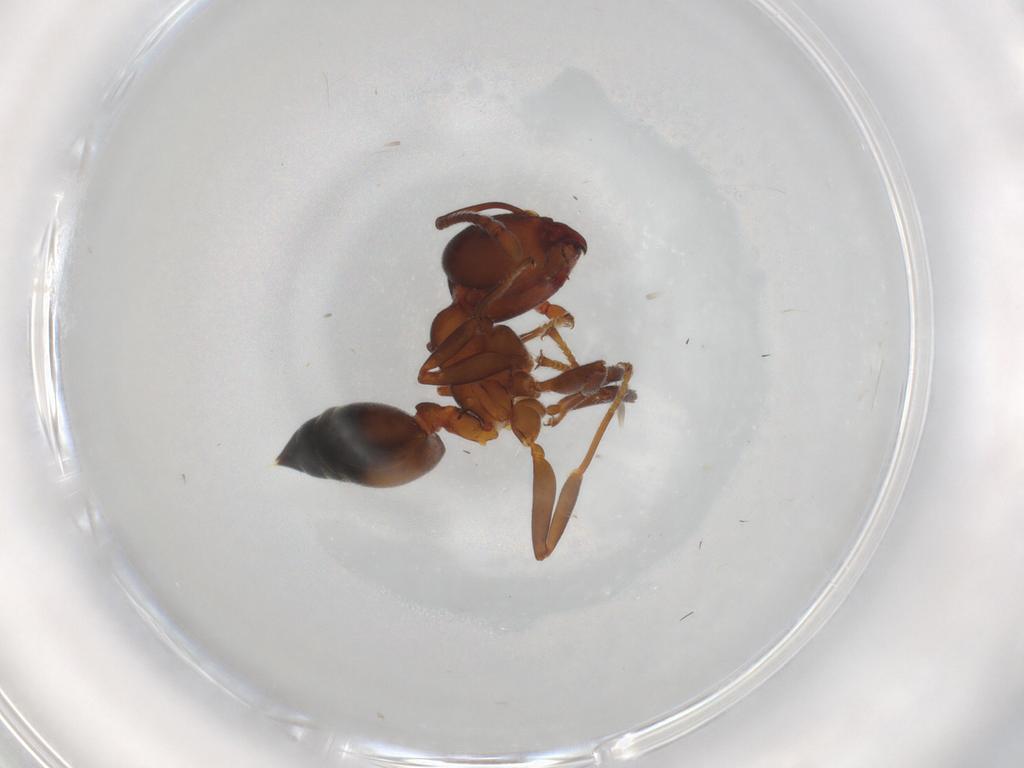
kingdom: Animalia
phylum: Arthropoda
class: Insecta
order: Hymenoptera
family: Formicidae
